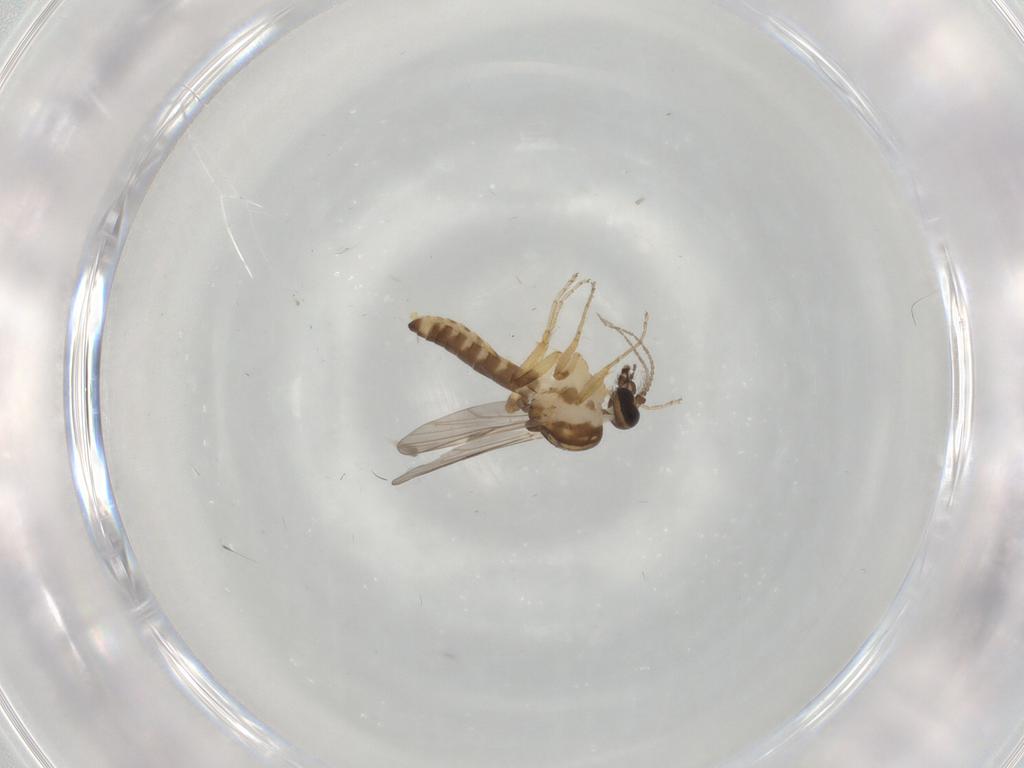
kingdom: Animalia
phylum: Arthropoda
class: Insecta
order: Diptera
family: Ceratopogonidae
